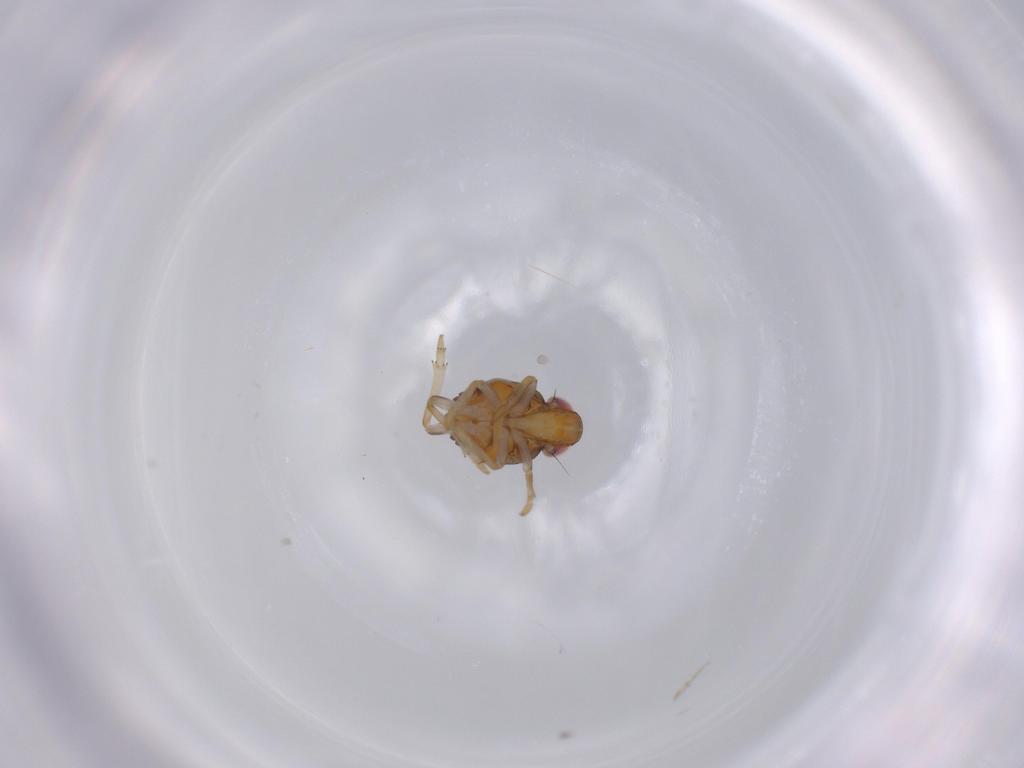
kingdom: Animalia
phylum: Arthropoda
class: Insecta
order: Hemiptera
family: Issidae
